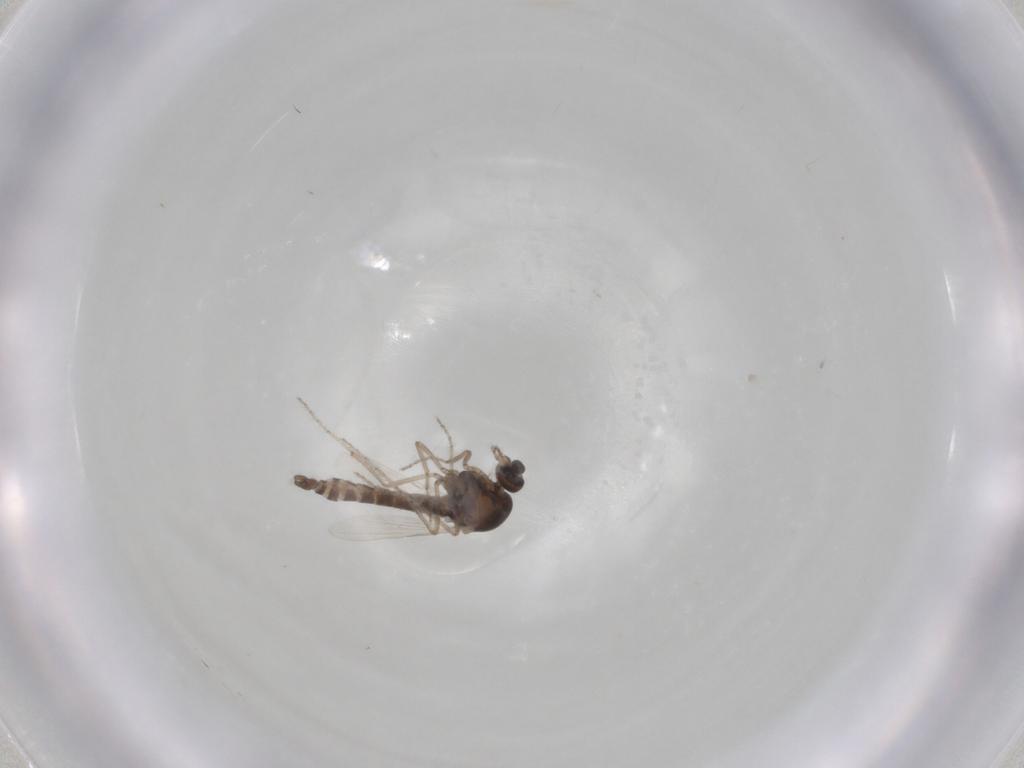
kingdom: Animalia
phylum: Arthropoda
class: Insecta
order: Diptera
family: Ceratopogonidae
